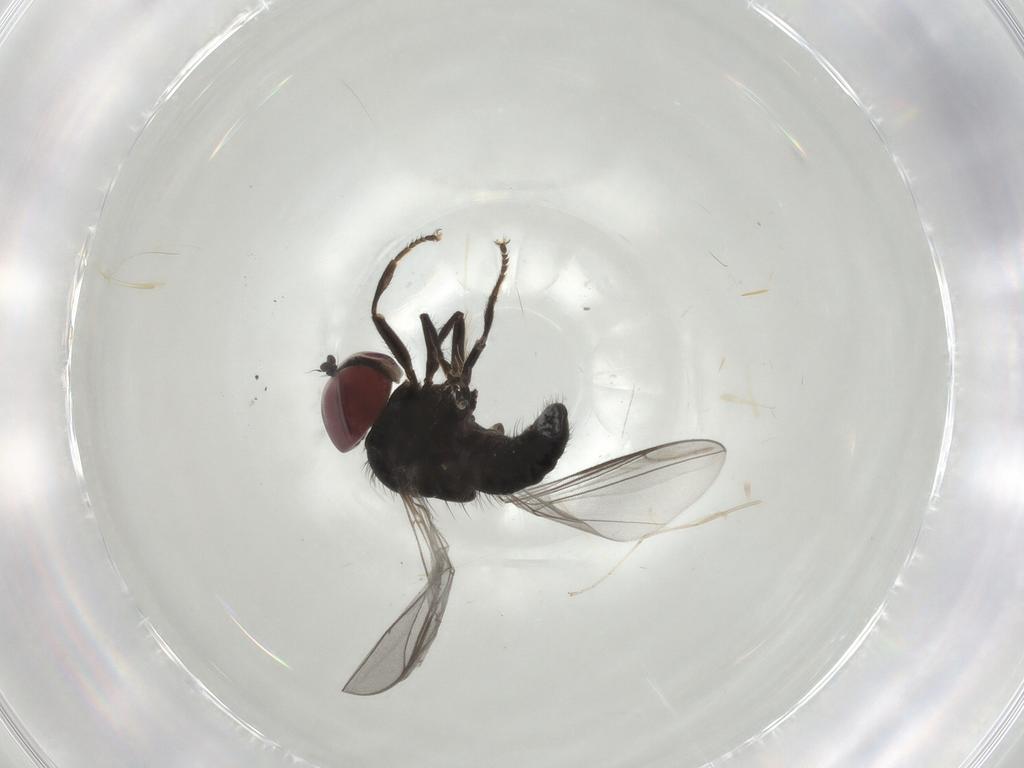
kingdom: Animalia
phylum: Arthropoda
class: Insecta
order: Diptera
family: Pipunculidae
